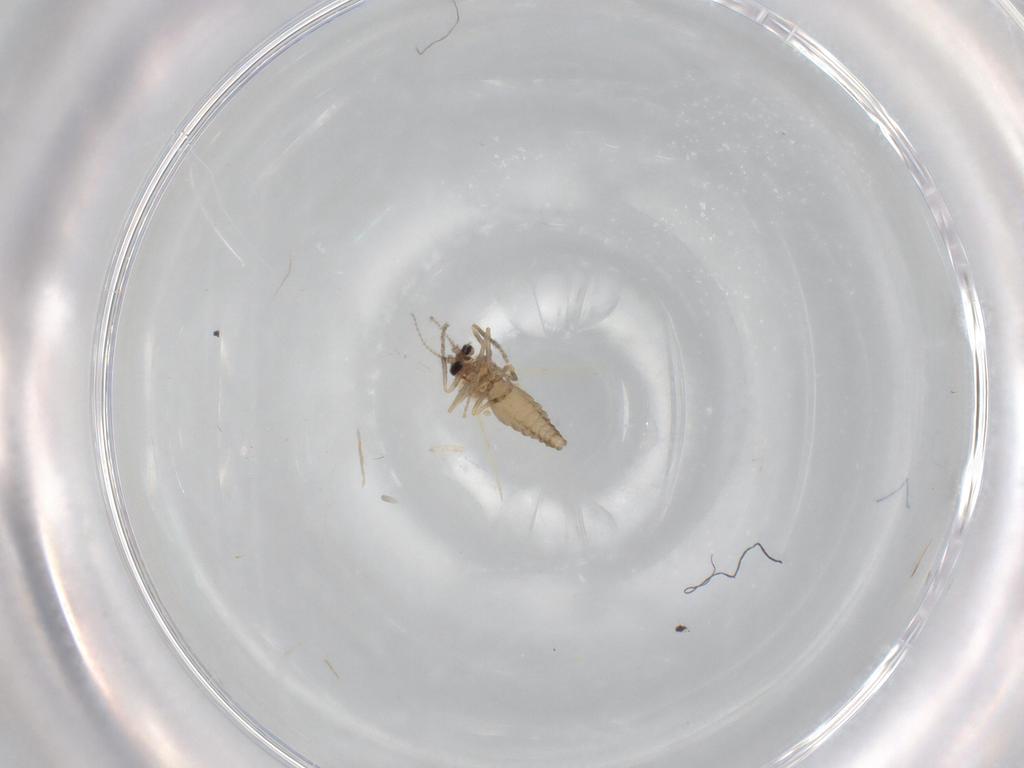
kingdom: Animalia
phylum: Arthropoda
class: Insecta
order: Diptera
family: Ceratopogonidae
